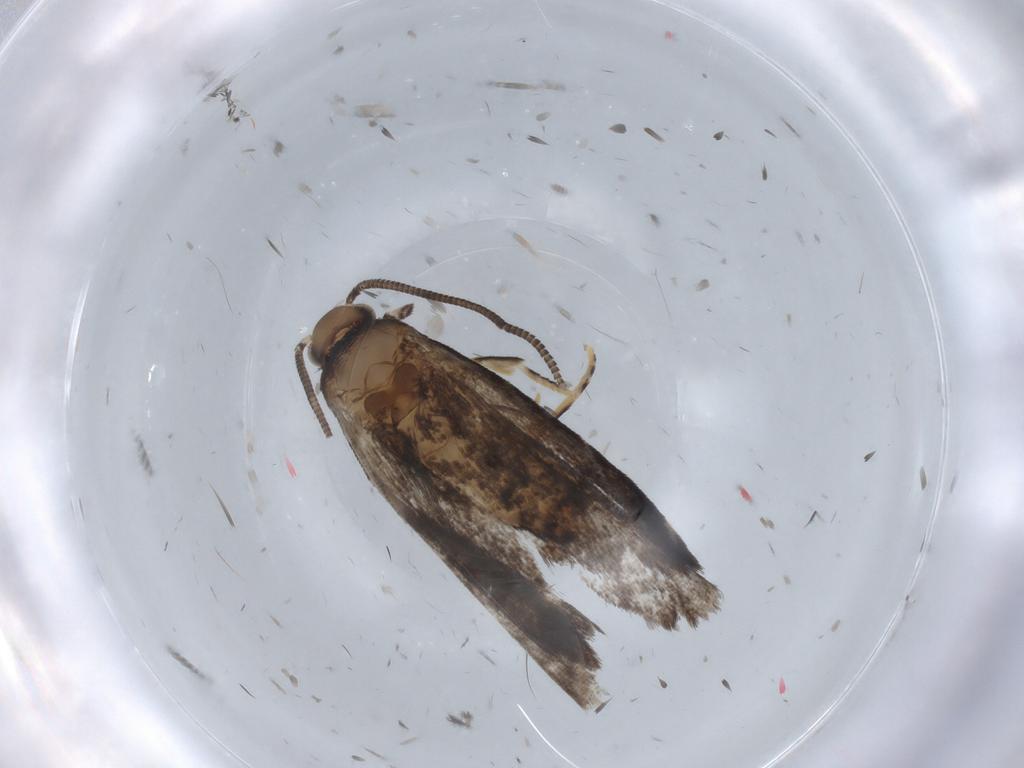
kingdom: Animalia
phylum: Arthropoda
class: Insecta
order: Lepidoptera
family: Dryadaulidae
